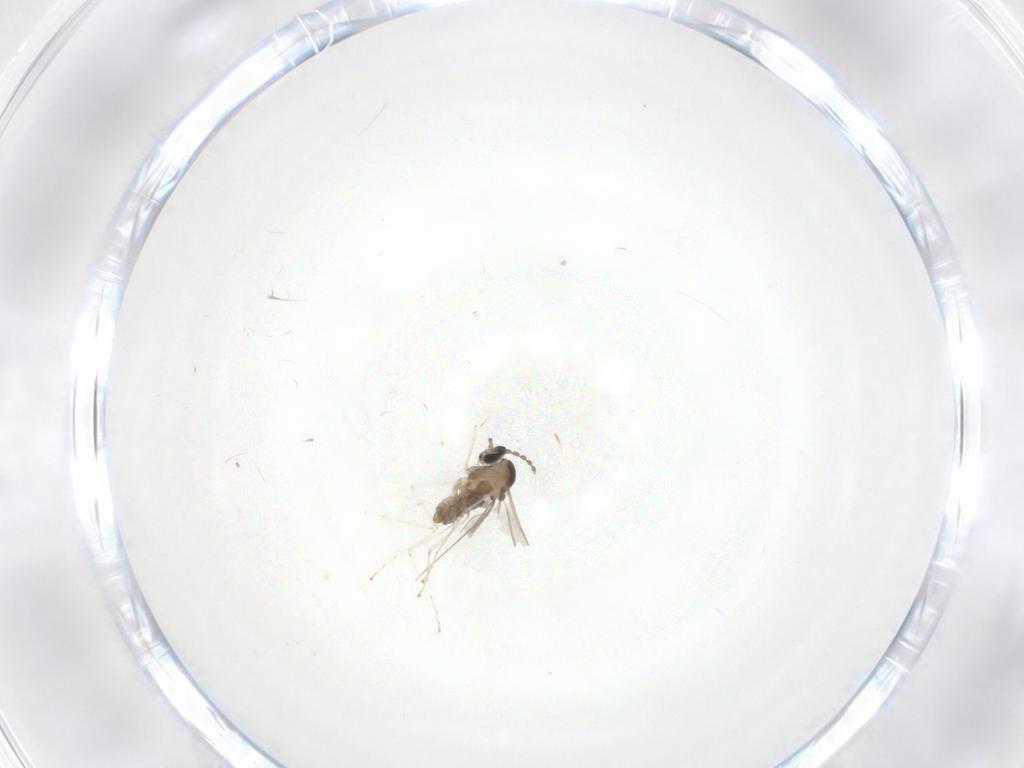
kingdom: Animalia
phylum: Arthropoda
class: Insecta
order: Diptera
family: Cecidomyiidae
